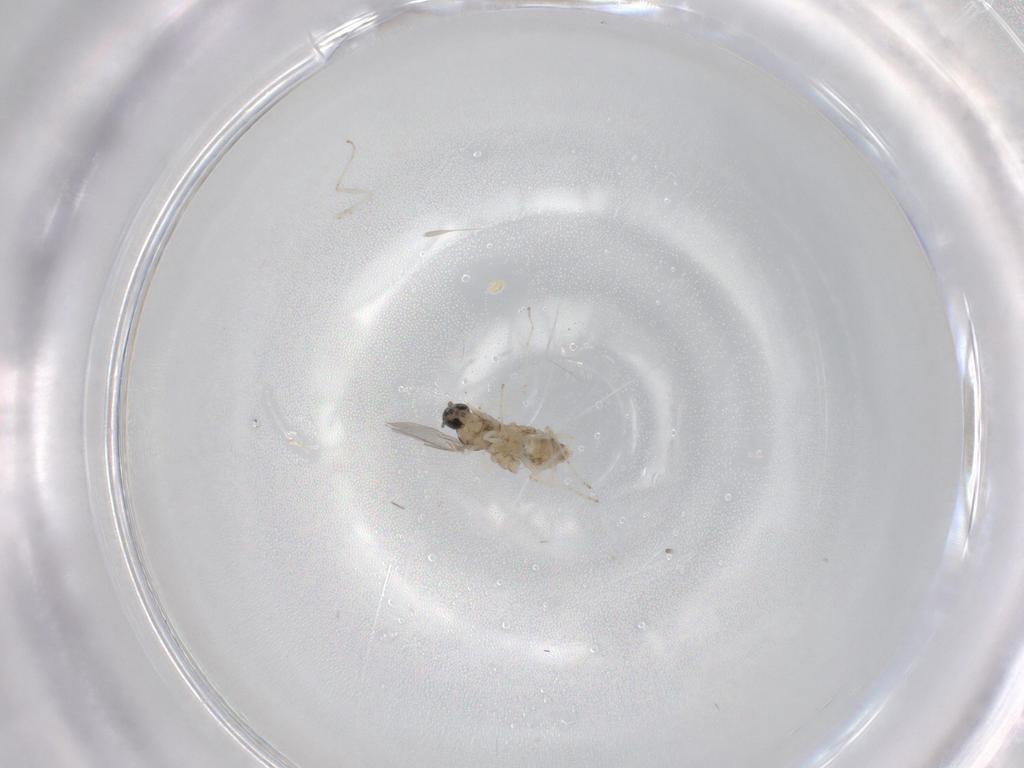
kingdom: Animalia
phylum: Arthropoda
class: Insecta
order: Diptera
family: Cecidomyiidae
